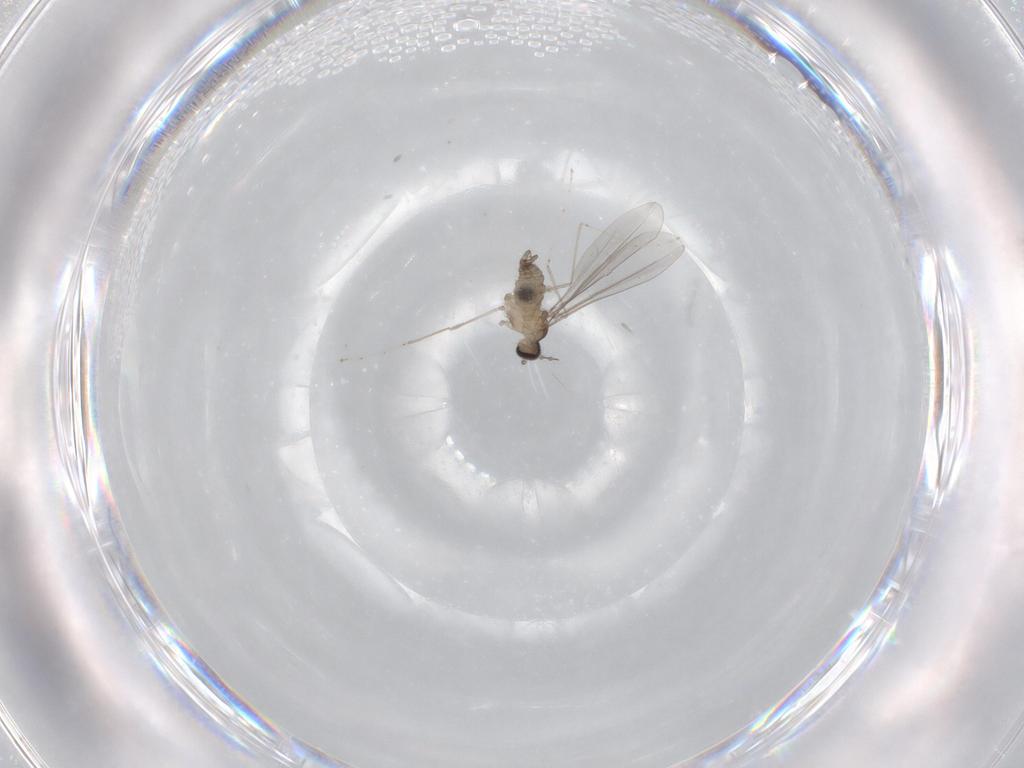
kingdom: Animalia
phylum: Arthropoda
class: Insecta
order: Diptera
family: Cecidomyiidae
